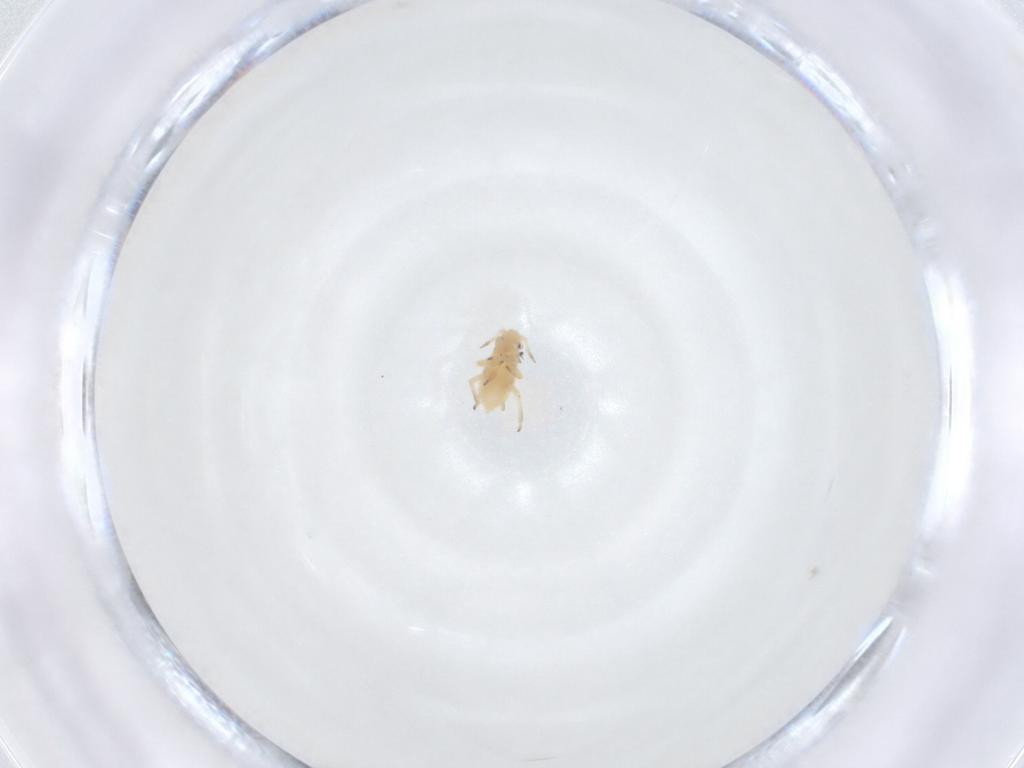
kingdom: Animalia
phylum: Arthropoda
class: Insecta
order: Hemiptera
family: Aphididae
